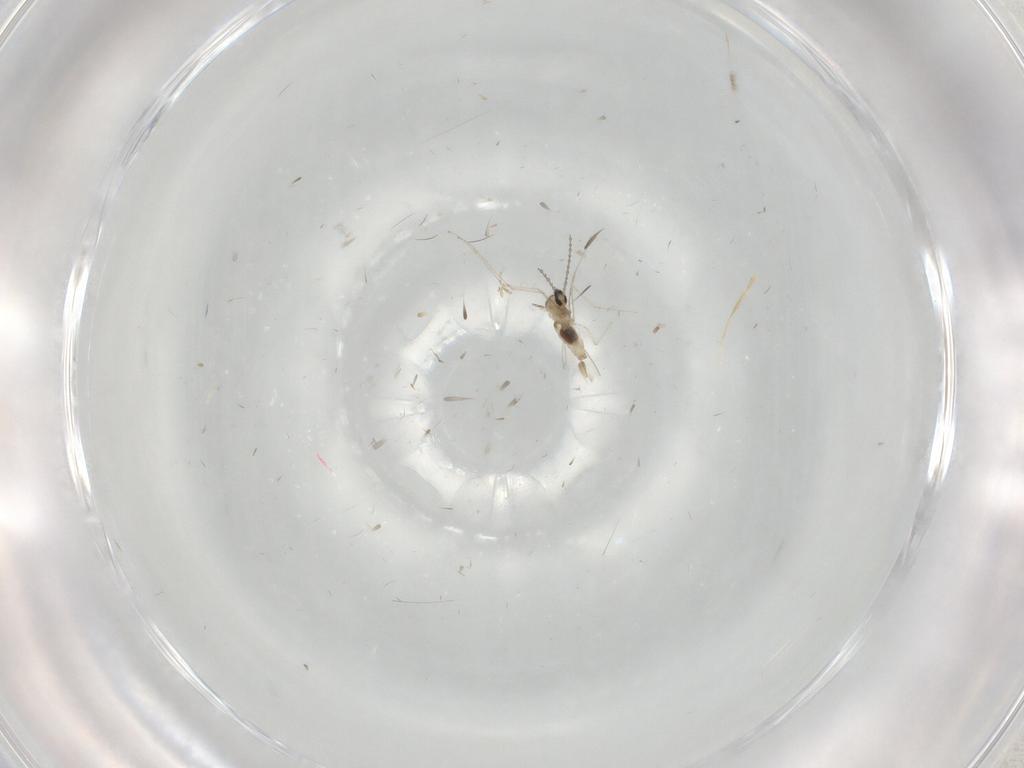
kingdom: Animalia
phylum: Arthropoda
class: Insecta
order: Diptera
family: Cecidomyiidae
